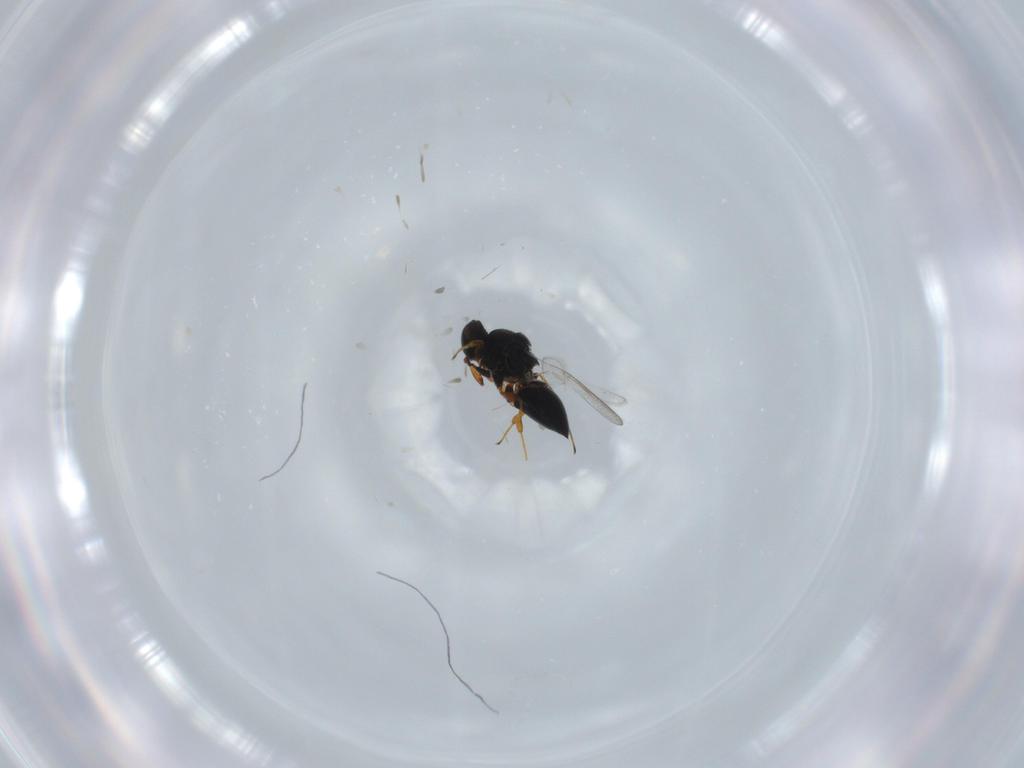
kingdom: Animalia
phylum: Arthropoda
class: Insecta
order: Hymenoptera
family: Platygastridae
